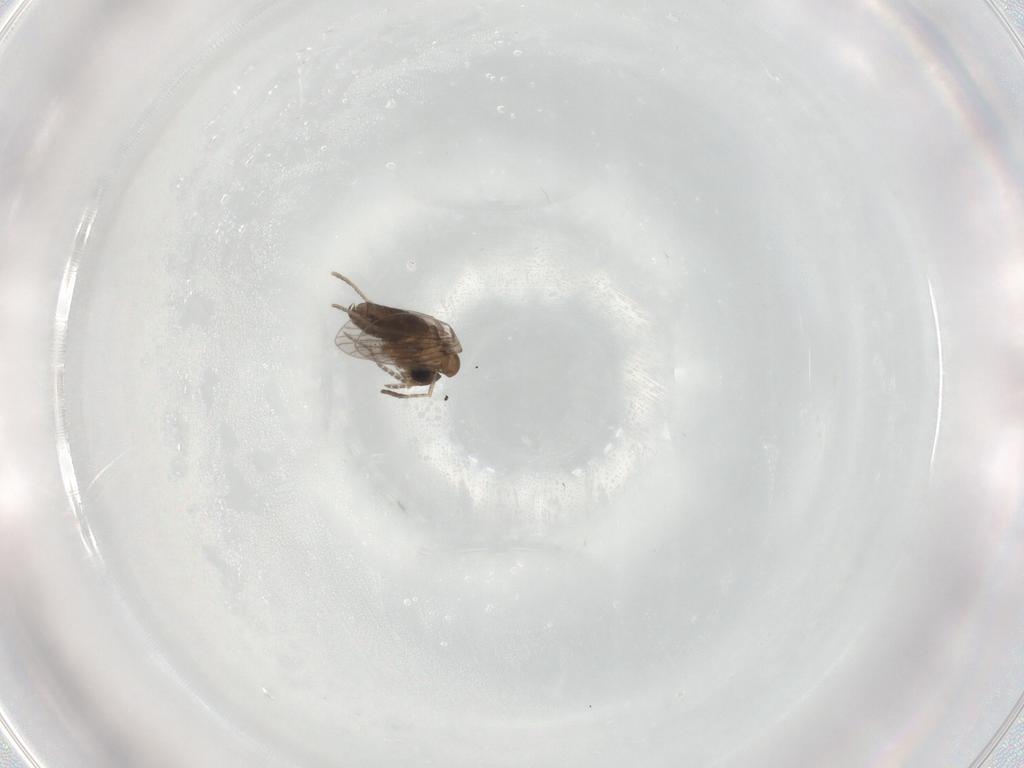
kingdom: Animalia
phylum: Arthropoda
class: Insecta
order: Diptera
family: Psychodidae
